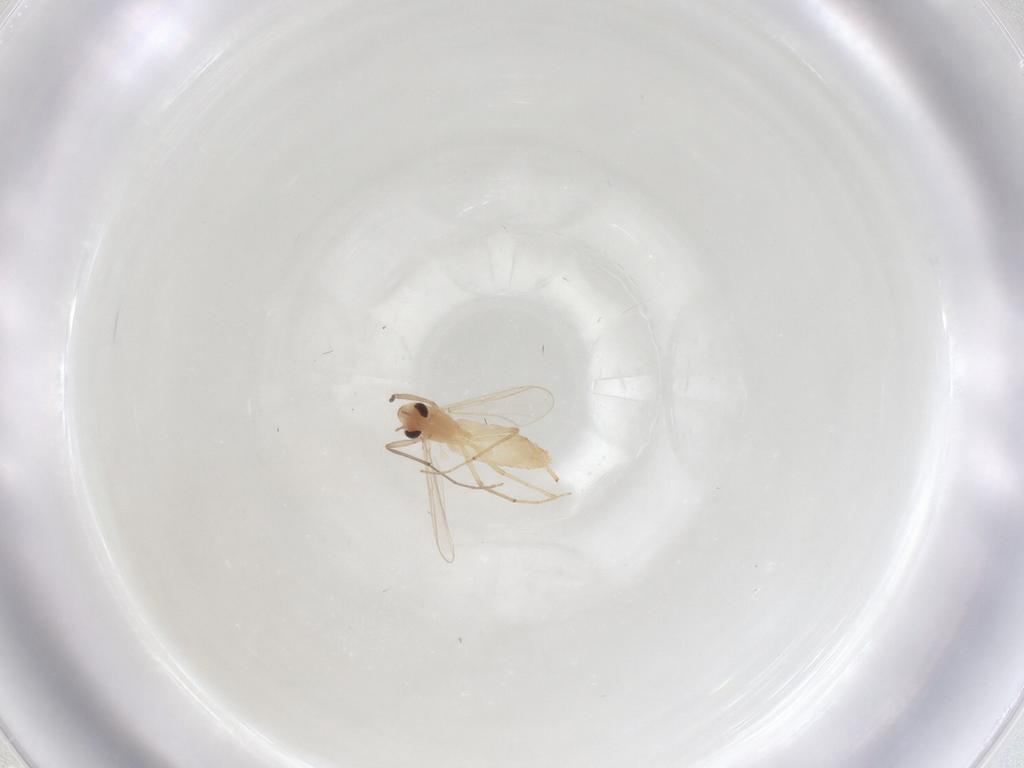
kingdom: Animalia
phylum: Arthropoda
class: Insecta
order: Diptera
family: Chironomidae
